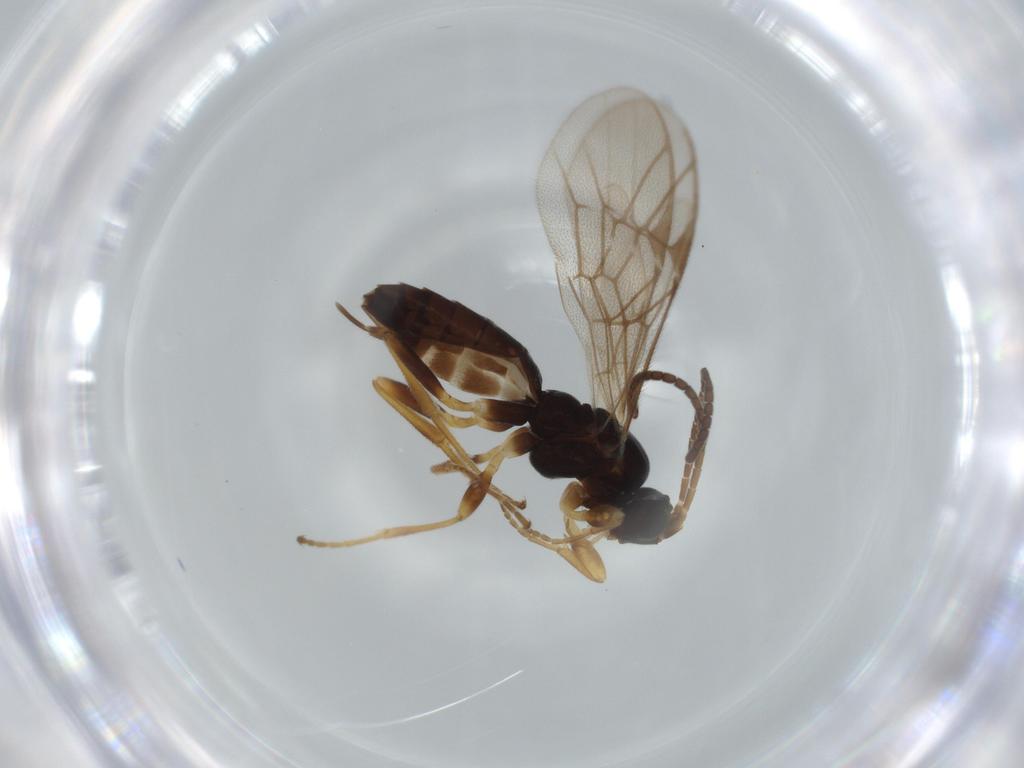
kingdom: Animalia
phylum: Arthropoda
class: Insecta
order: Hymenoptera
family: Ichneumonidae
